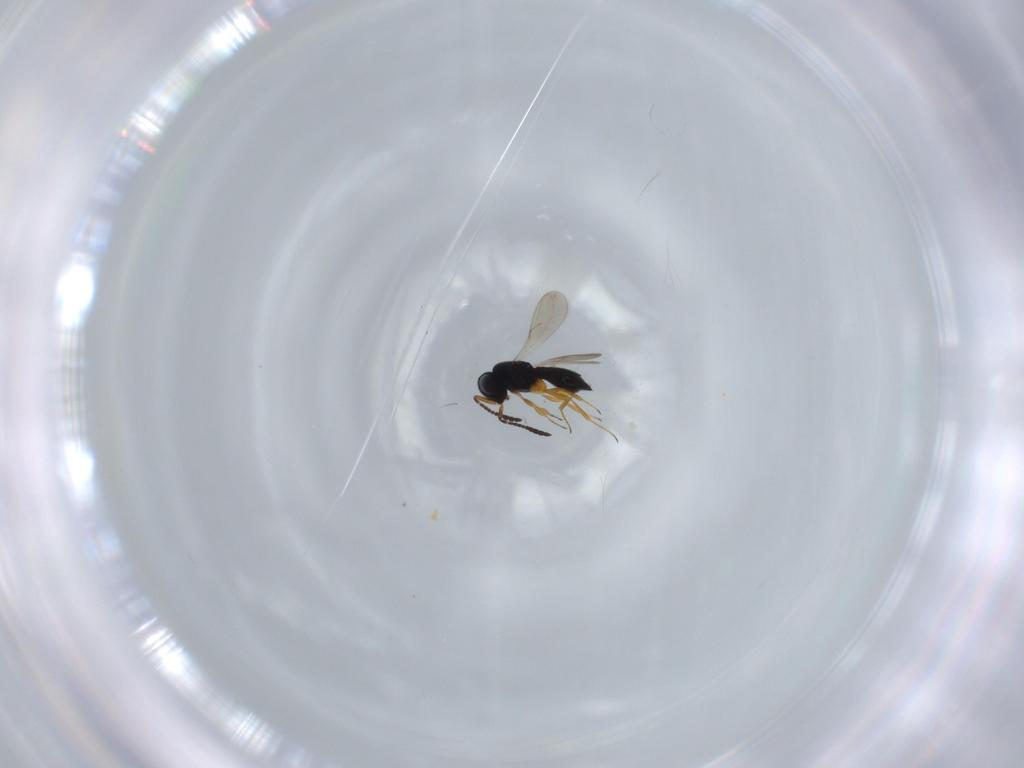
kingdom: Animalia
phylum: Arthropoda
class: Insecta
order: Hymenoptera
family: Scelionidae
